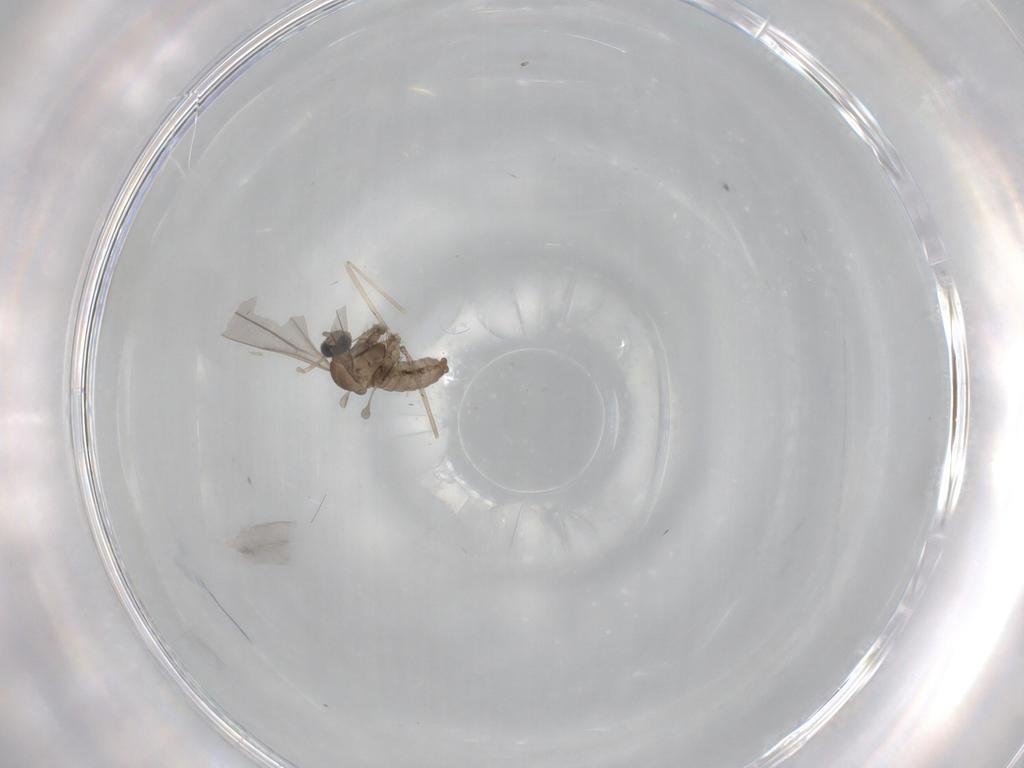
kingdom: Animalia
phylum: Arthropoda
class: Insecta
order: Diptera
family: Cecidomyiidae
